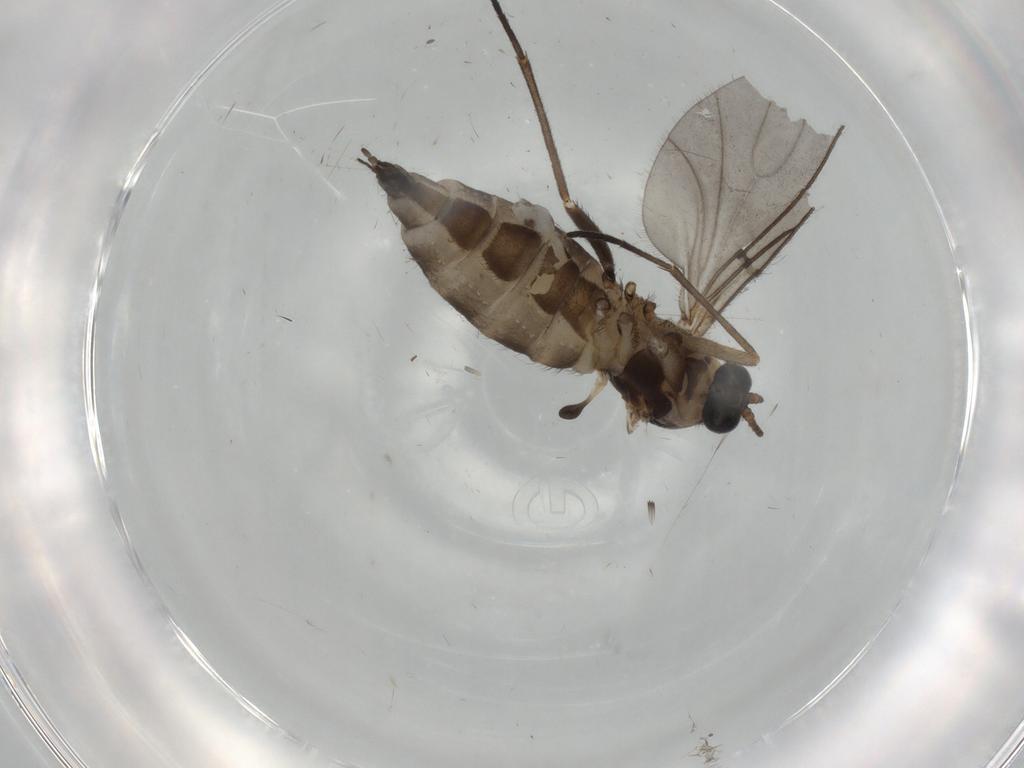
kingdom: Animalia
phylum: Arthropoda
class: Insecta
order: Diptera
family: Sciaridae
